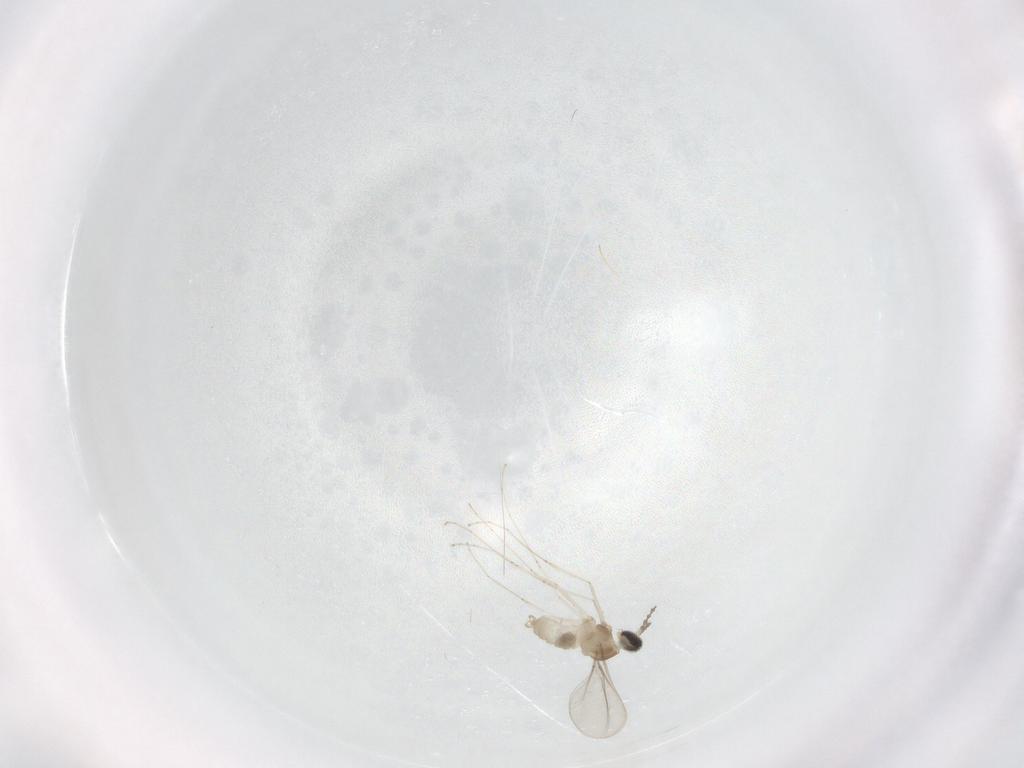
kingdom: Animalia
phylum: Arthropoda
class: Insecta
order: Diptera
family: Cecidomyiidae
